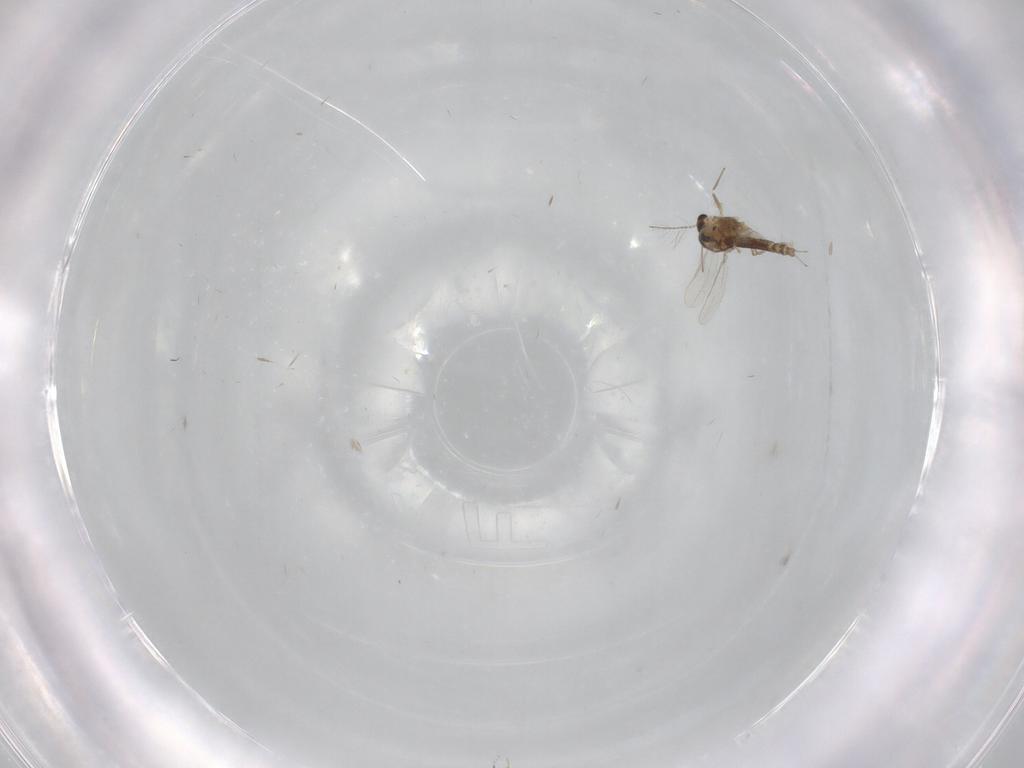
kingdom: Animalia
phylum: Arthropoda
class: Insecta
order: Diptera
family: Chironomidae
